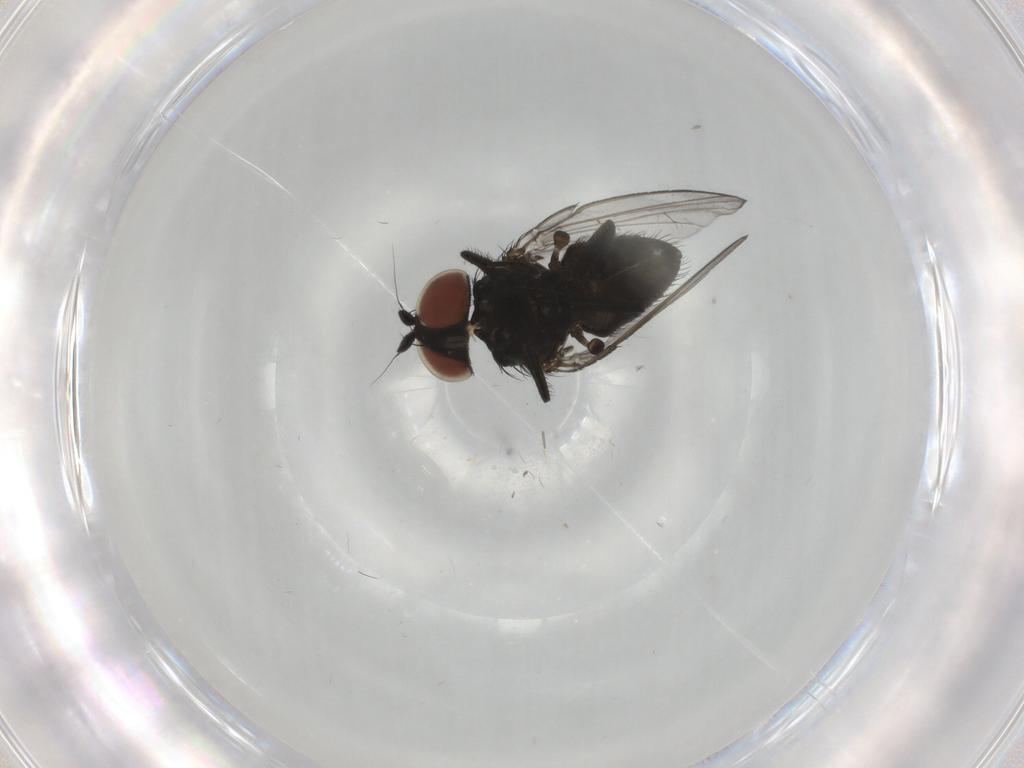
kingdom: Animalia
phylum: Arthropoda
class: Insecta
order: Diptera
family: Milichiidae
